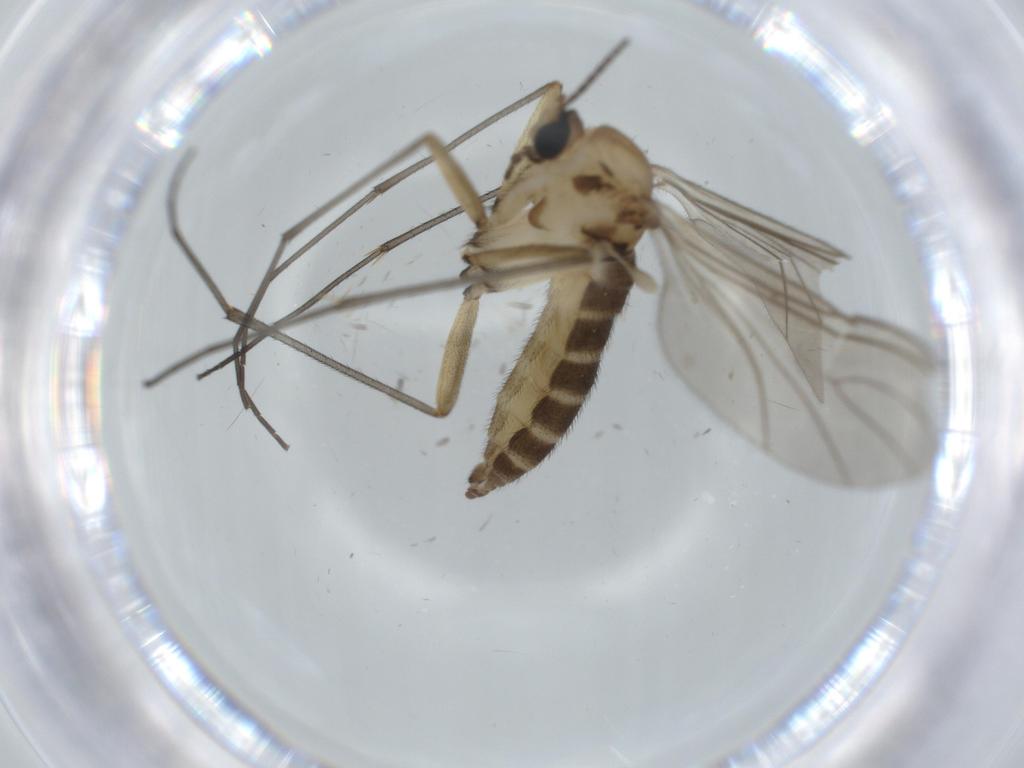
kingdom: Animalia
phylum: Arthropoda
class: Insecta
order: Diptera
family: Sciaridae
